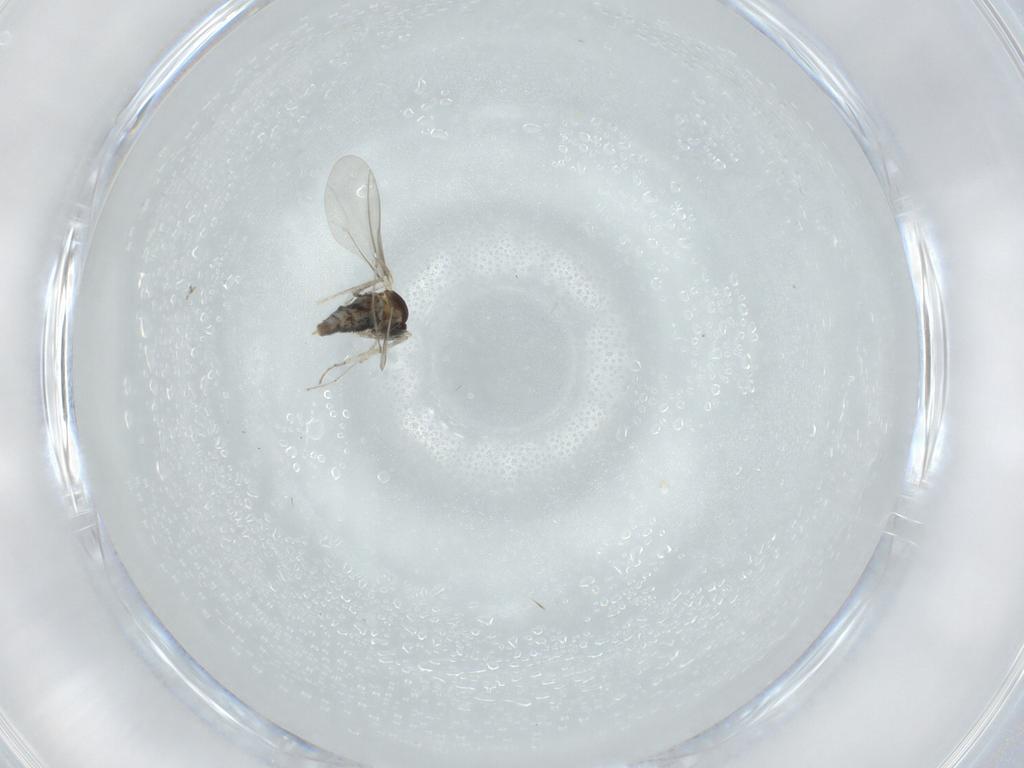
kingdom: Animalia
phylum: Arthropoda
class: Insecta
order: Diptera
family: Cecidomyiidae
